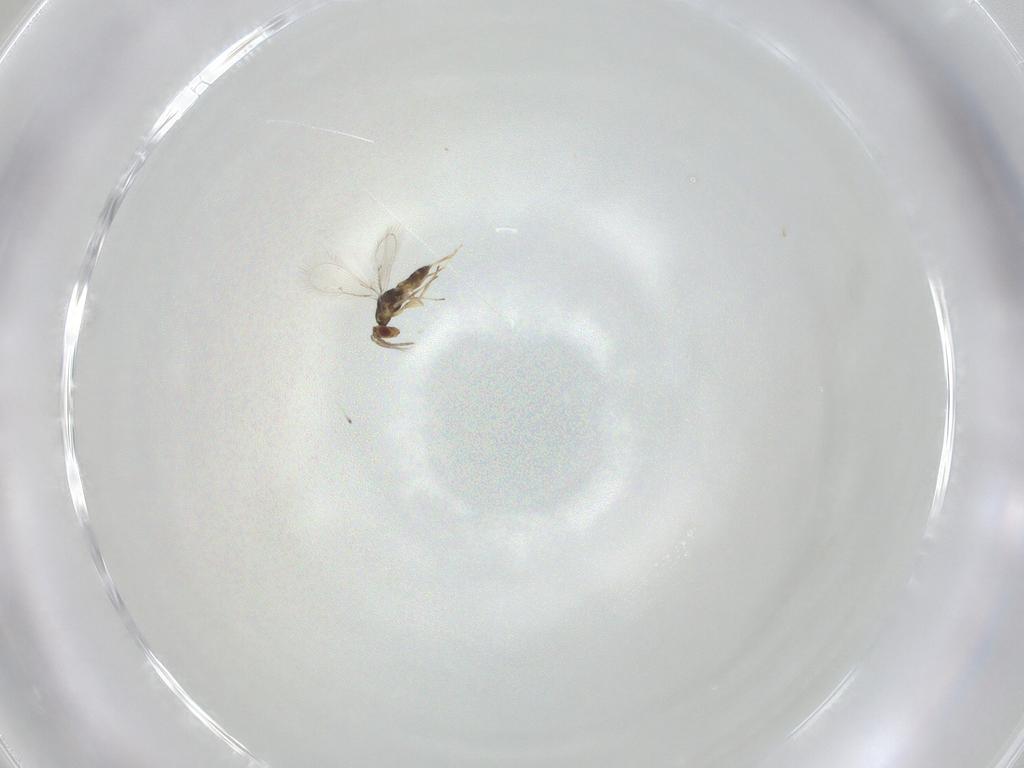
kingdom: Animalia
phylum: Arthropoda
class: Insecta
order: Hymenoptera
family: Eulophidae
